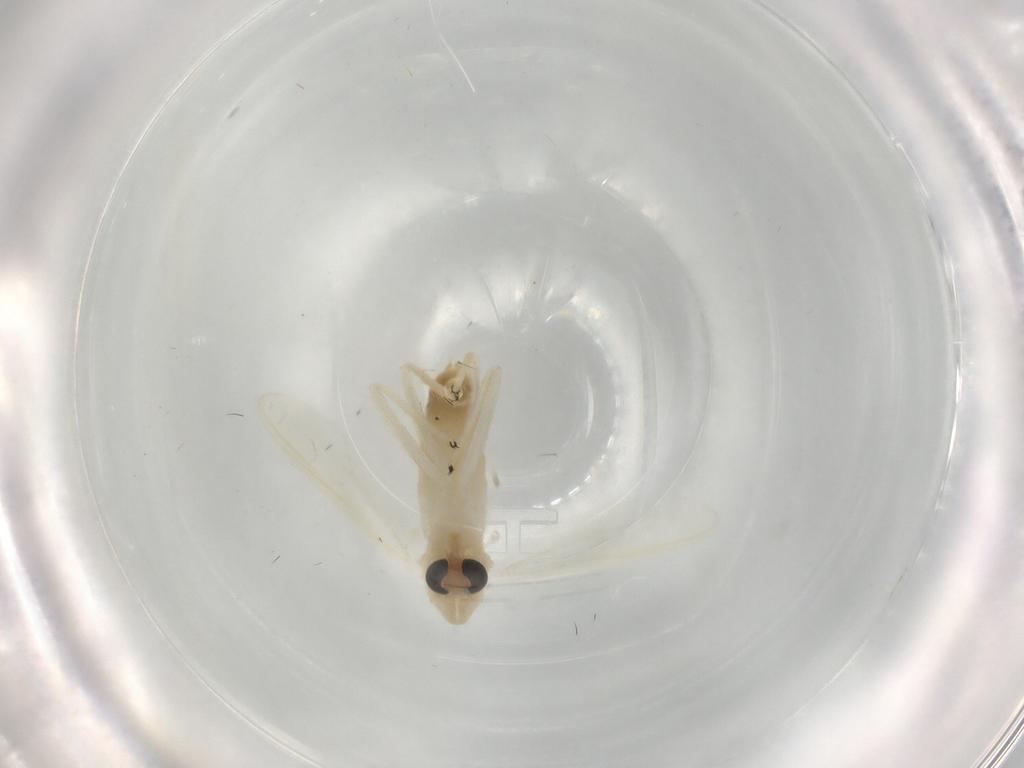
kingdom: Animalia
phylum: Arthropoda
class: Insecta
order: Diptera
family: Chironomidae
